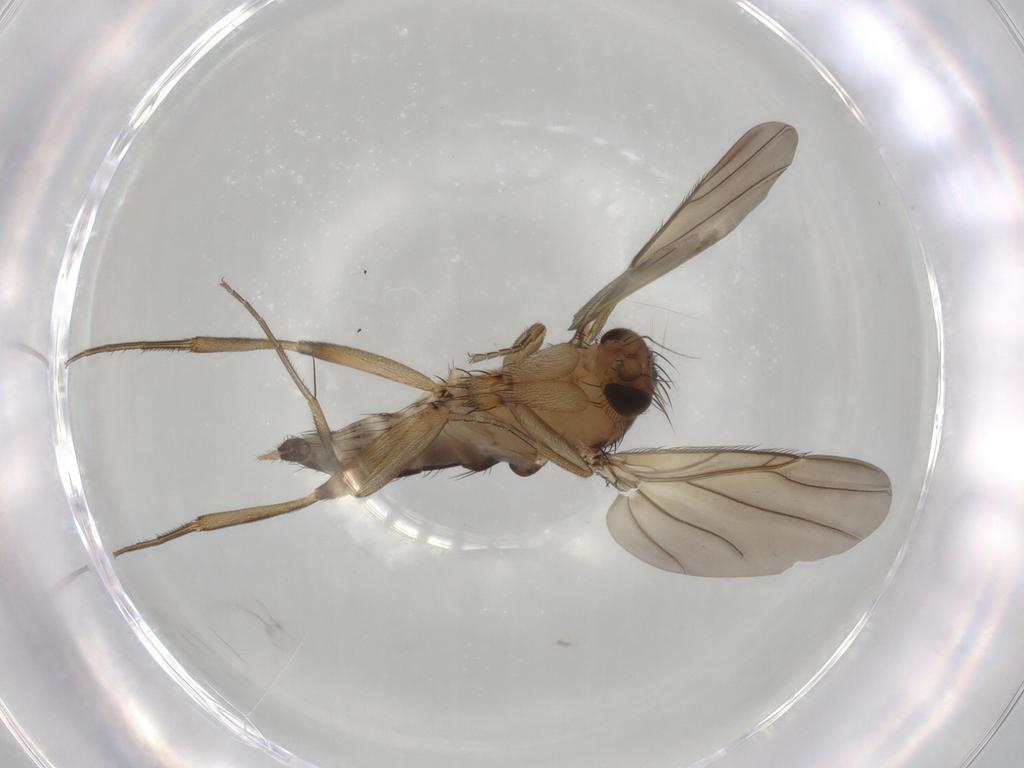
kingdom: Animalia
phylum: Arthropoda
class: Insecta
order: Diptera
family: Phoridae
